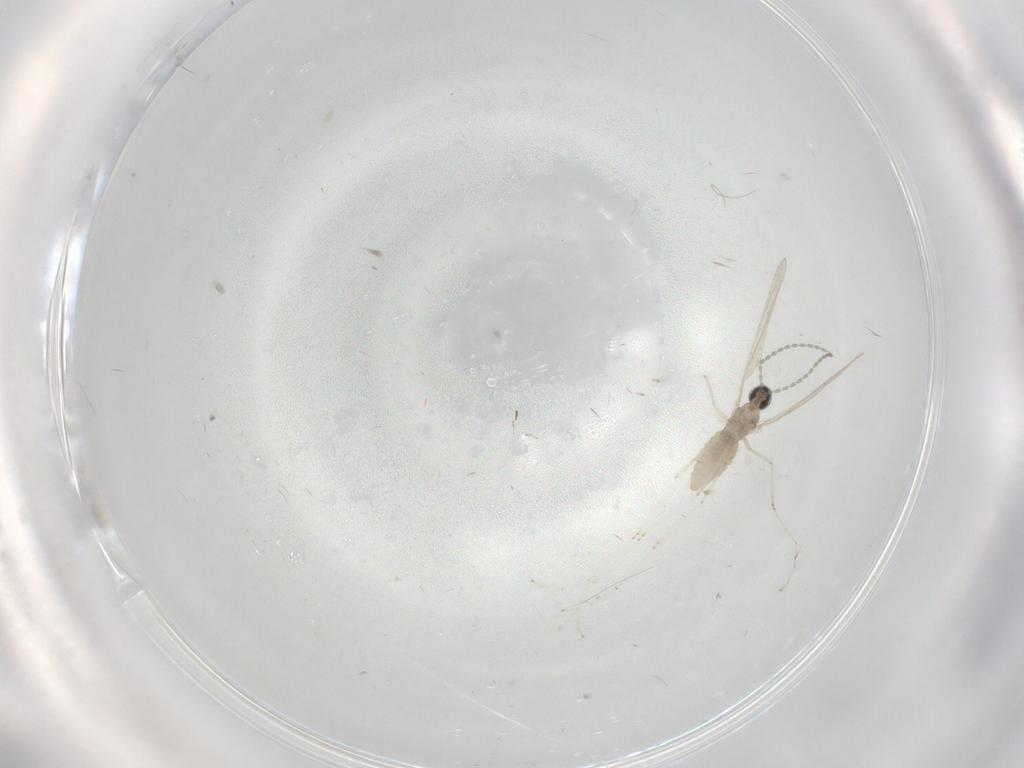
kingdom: Animalia
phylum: Arthropoda
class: Insecta
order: Diptera
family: Cecidomyiidae
